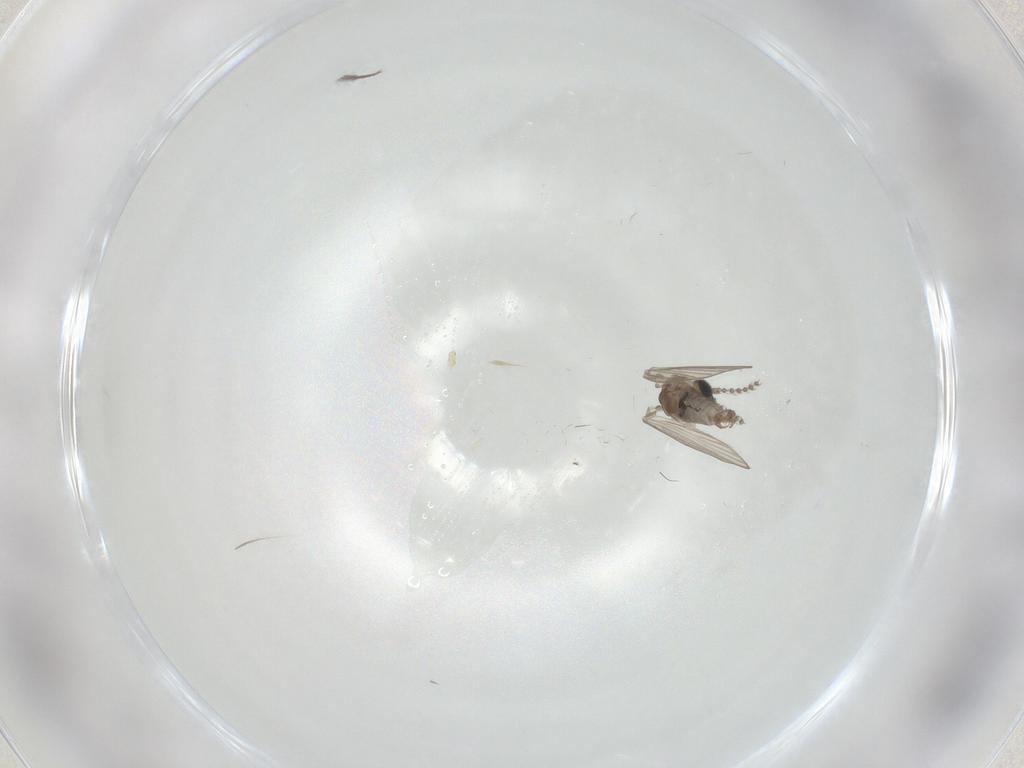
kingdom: Animalia
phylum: Arthropoda
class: Insecta
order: Diptera
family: Psychodidae
